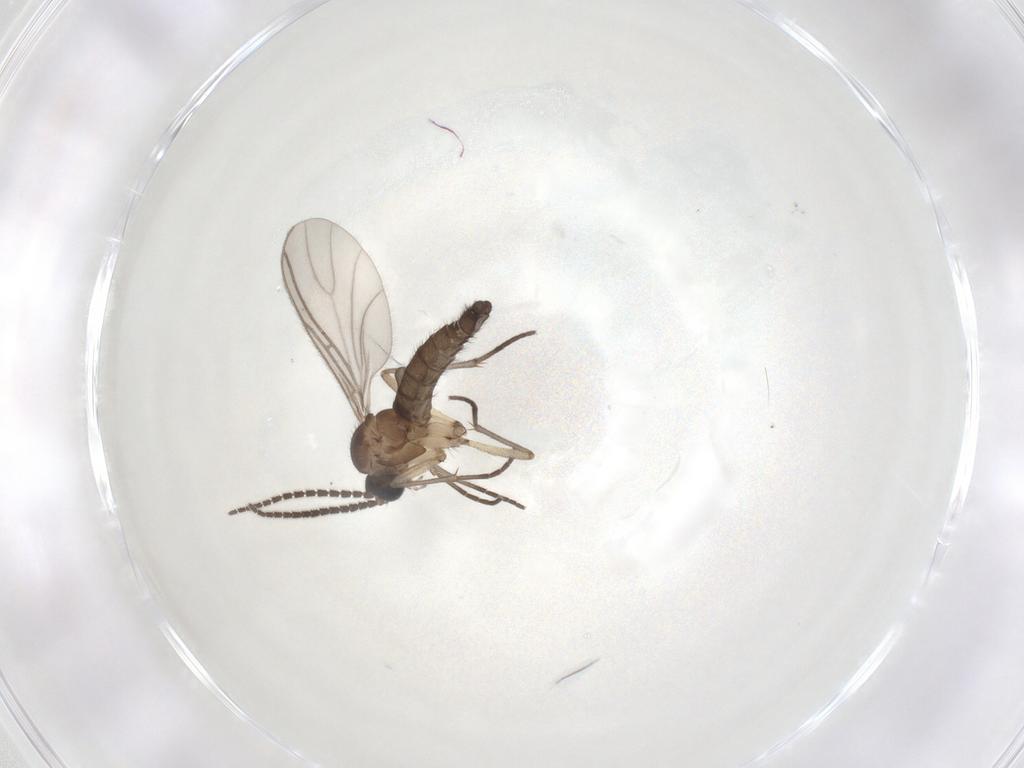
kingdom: Animalia
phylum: Arthropoda
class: Insecta
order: Diptera
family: Sciaridae
